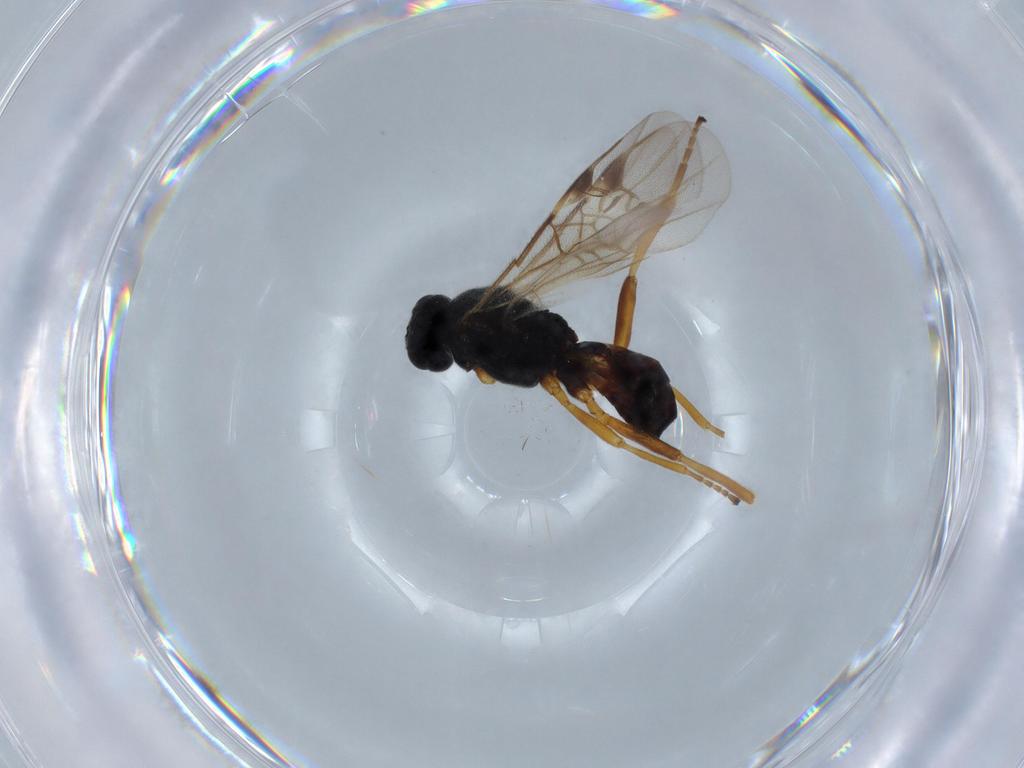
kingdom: Animalia
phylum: Arthropoda
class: Insecta
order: Hymenoptera
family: Braconidae
